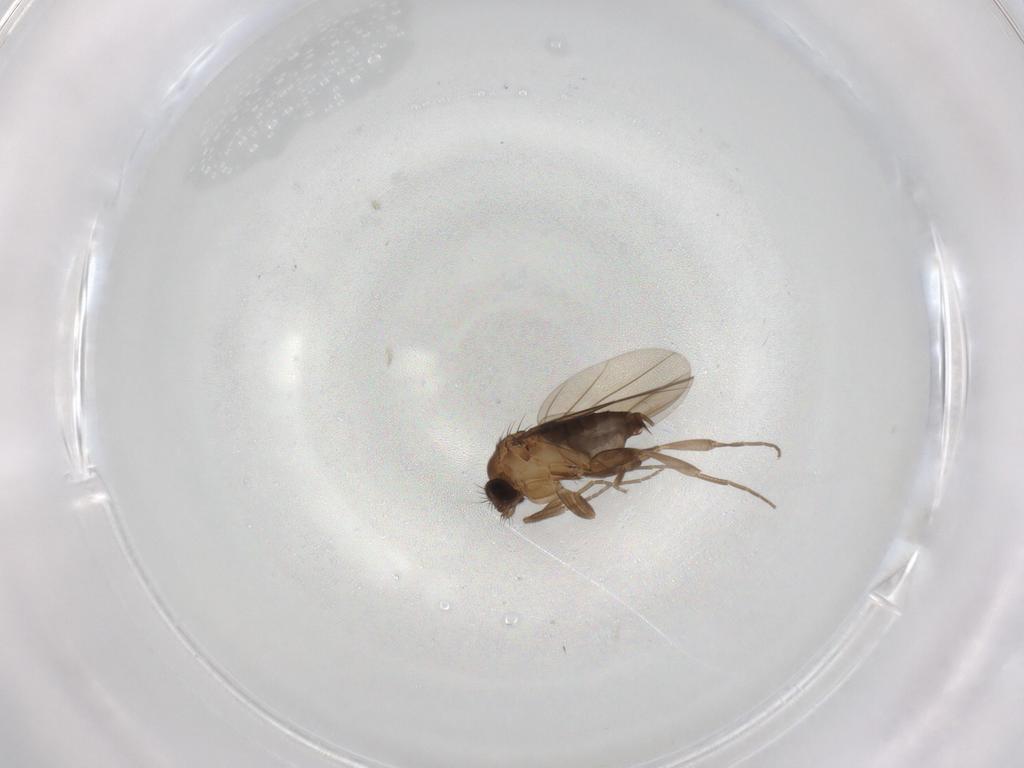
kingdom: Animalia
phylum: Arthropoda
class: Insecta
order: Diptera
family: Phoridae
